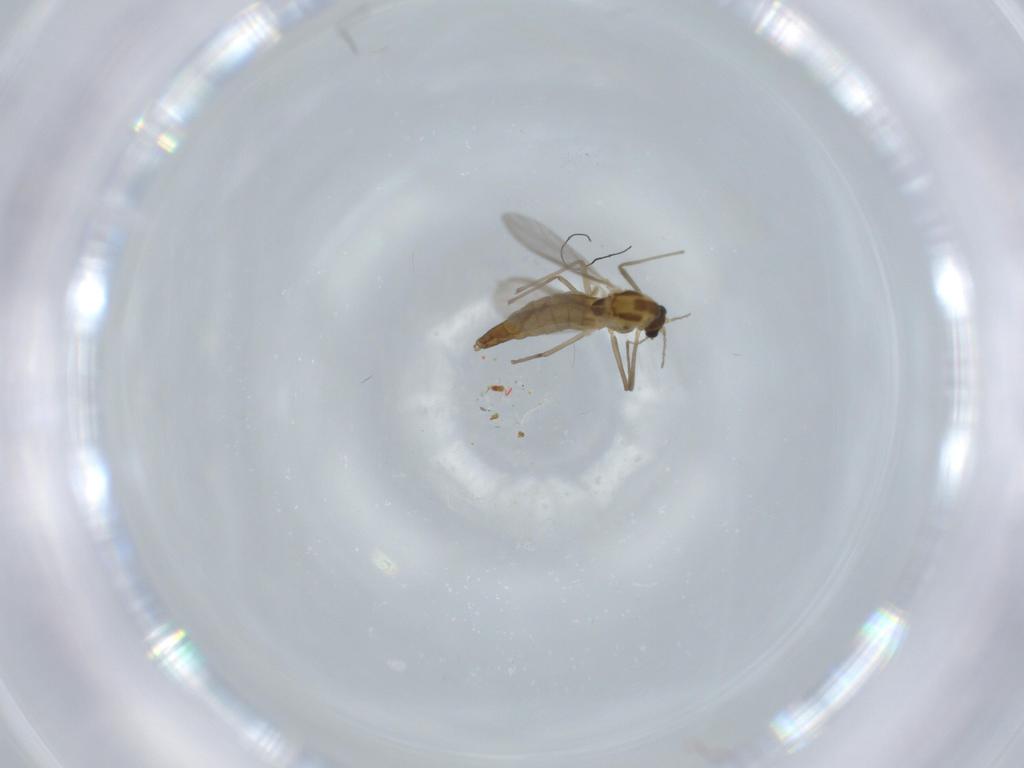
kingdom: Animalia
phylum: Arthropoda
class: Insecta
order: Diptera
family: Chironomidae
